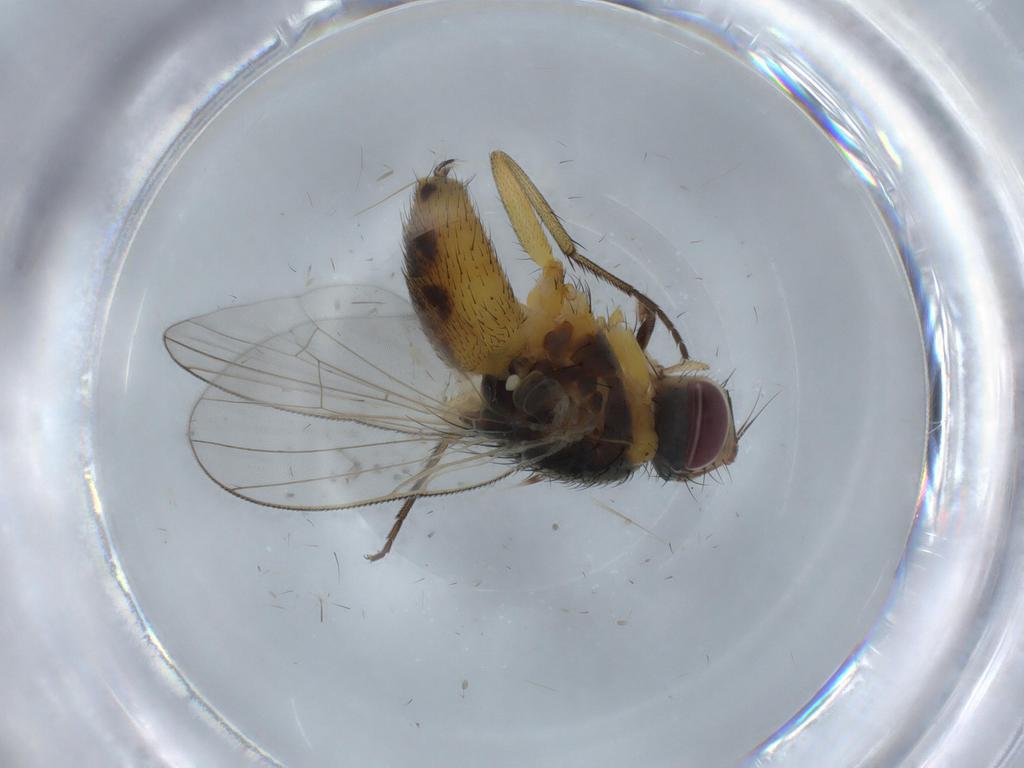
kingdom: Animalia
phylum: Arthropoda
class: Insecta
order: Diptera
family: Muscidae
